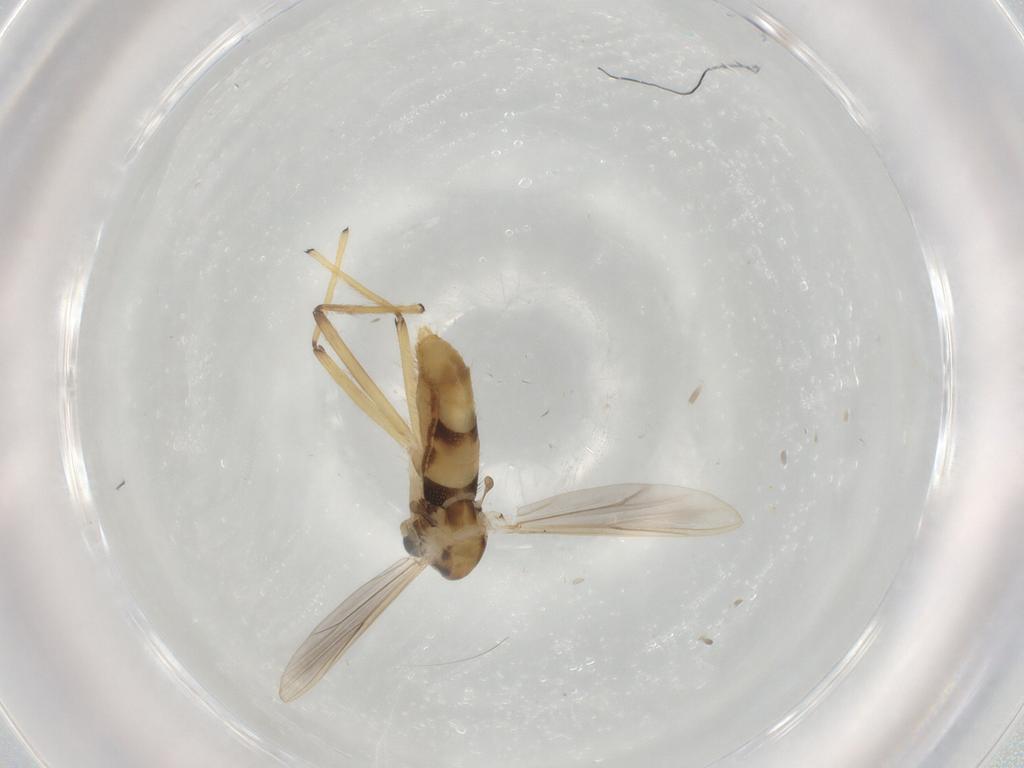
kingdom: Animalia
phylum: Arthropoda
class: Insecta
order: Diptera
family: Chironomidae
